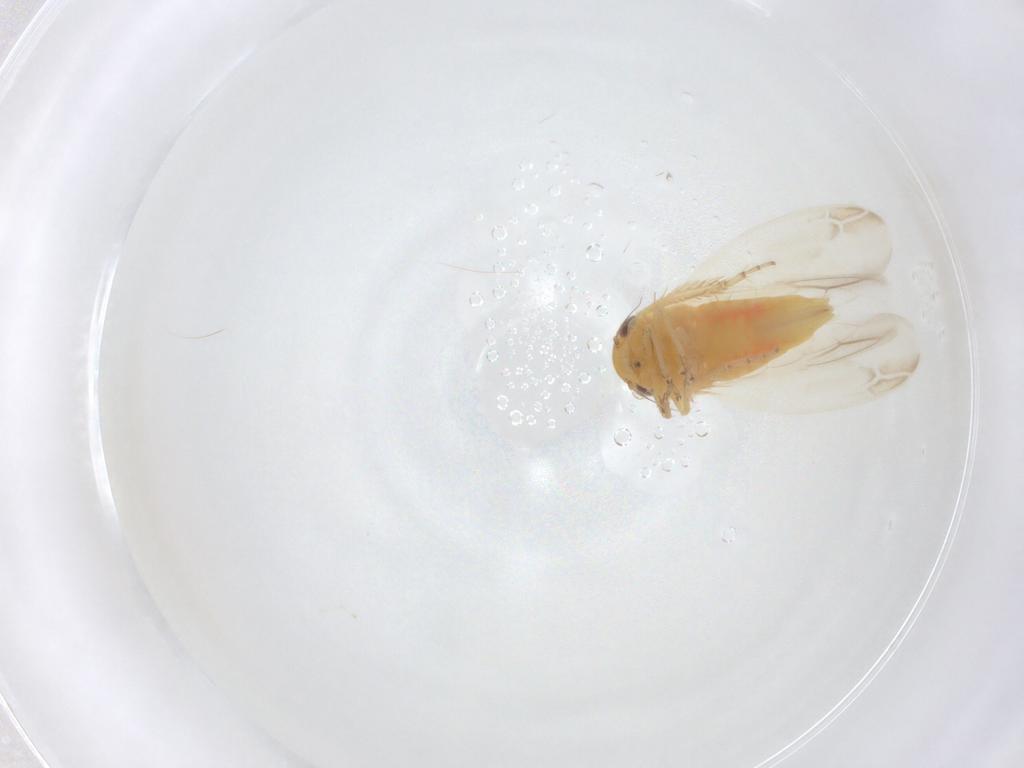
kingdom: Animalia
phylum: Arthropoda
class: Insecta
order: Hemiptera
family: Cicadellidae
